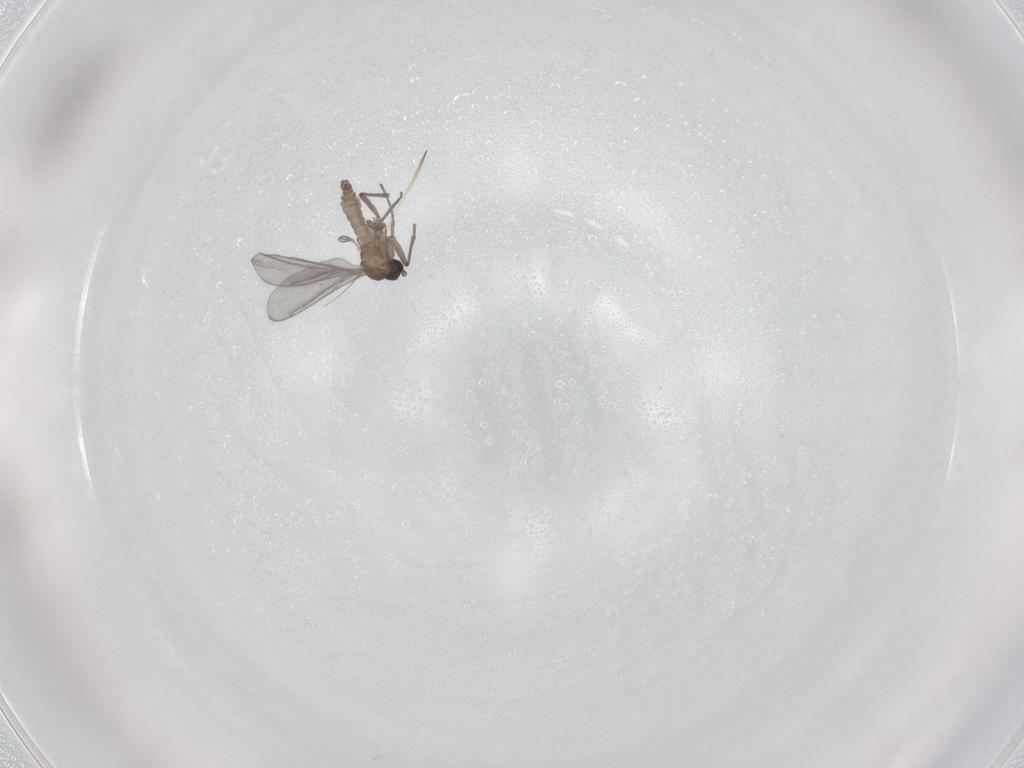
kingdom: Animalia
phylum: Arthropoda
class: Insecta
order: Diptera
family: Sciaridae
